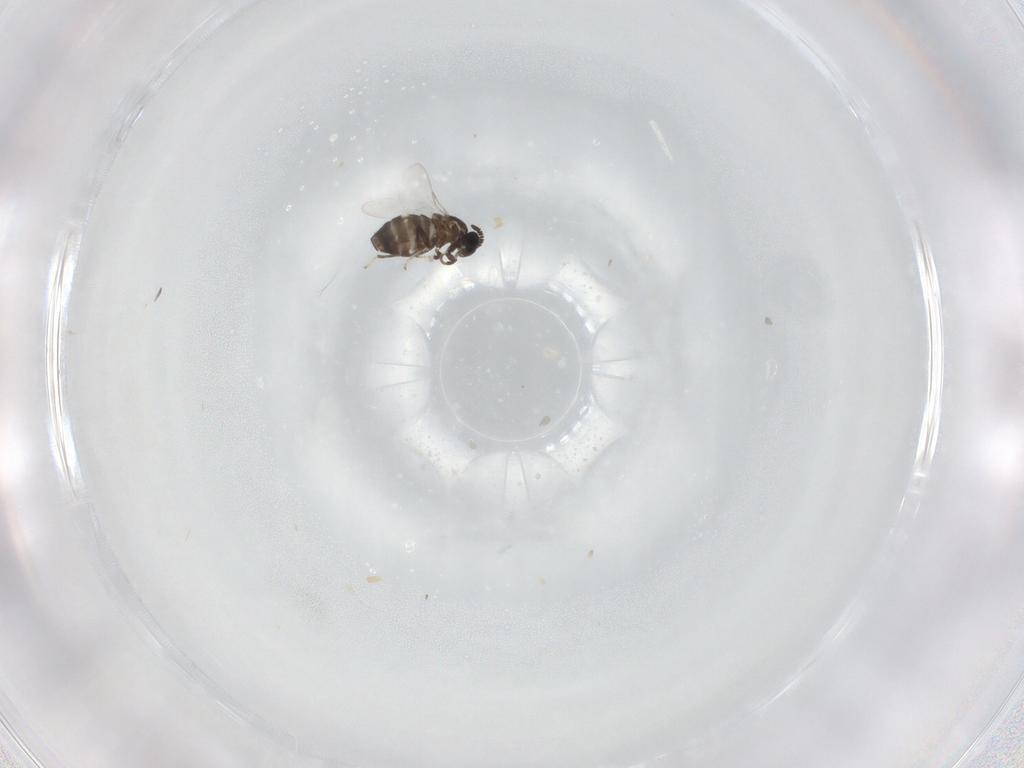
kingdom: Animalia
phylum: Arthropoda
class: Insecta
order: Diptera
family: Scatopsidae
